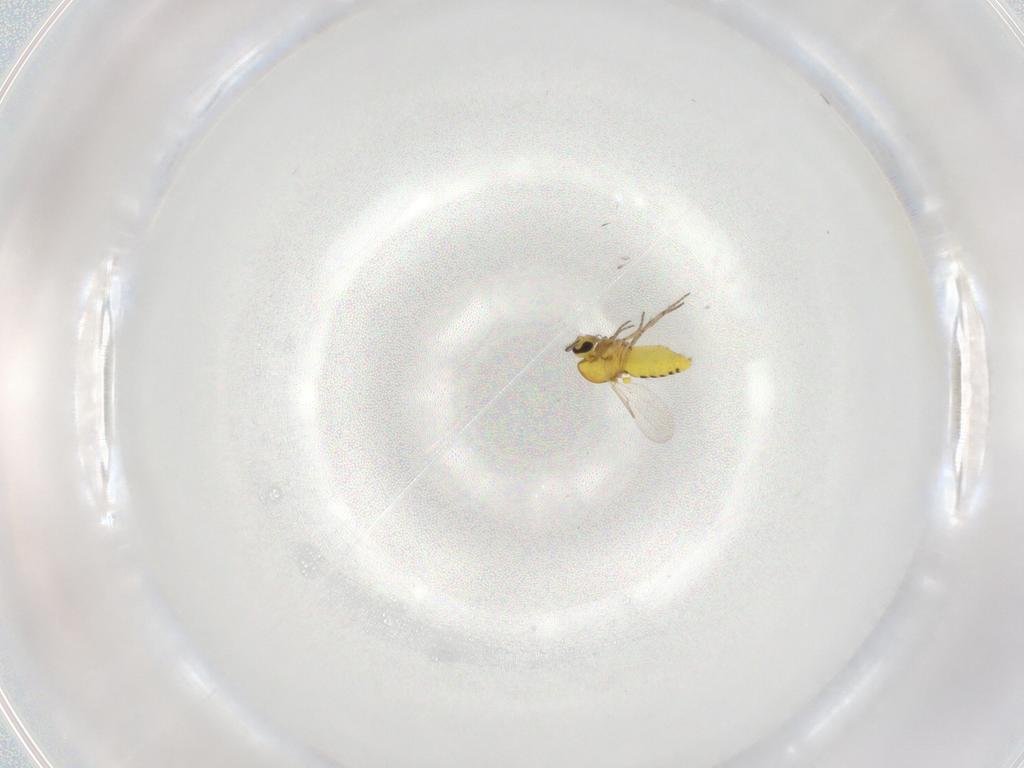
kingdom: Animalia
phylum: Arthropoda
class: Insecta
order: Diptera
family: Ceratopogonidae
